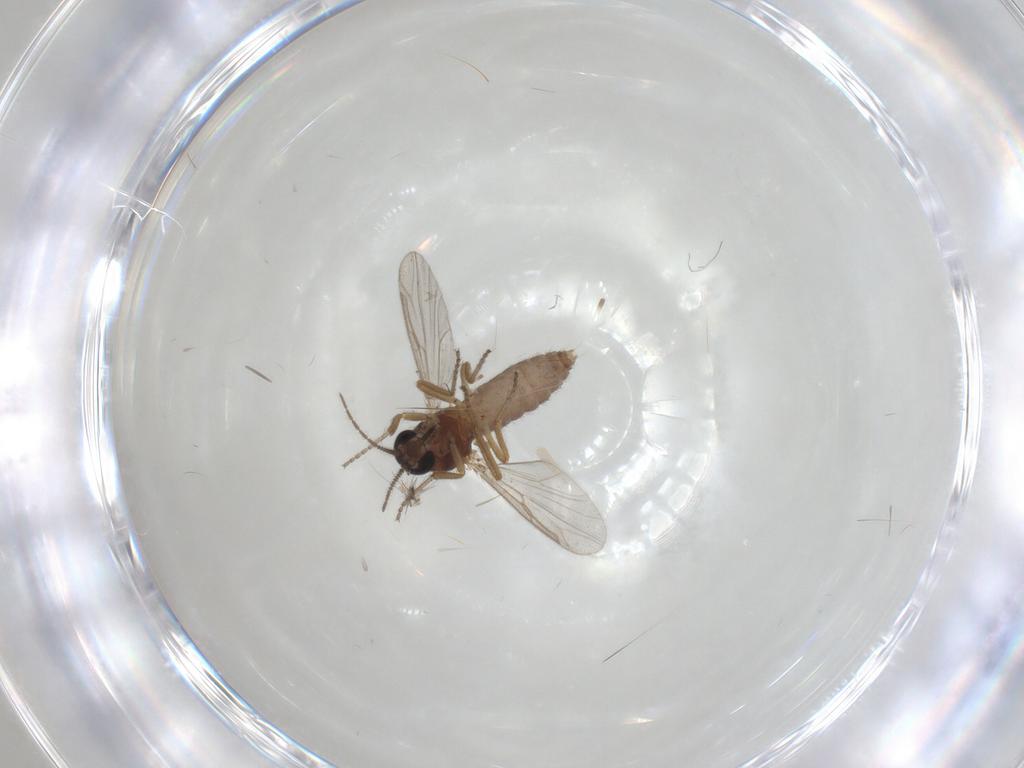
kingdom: Animalia
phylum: Arthropoda
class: Insecta
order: Diptera
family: Ceratopogonidae
